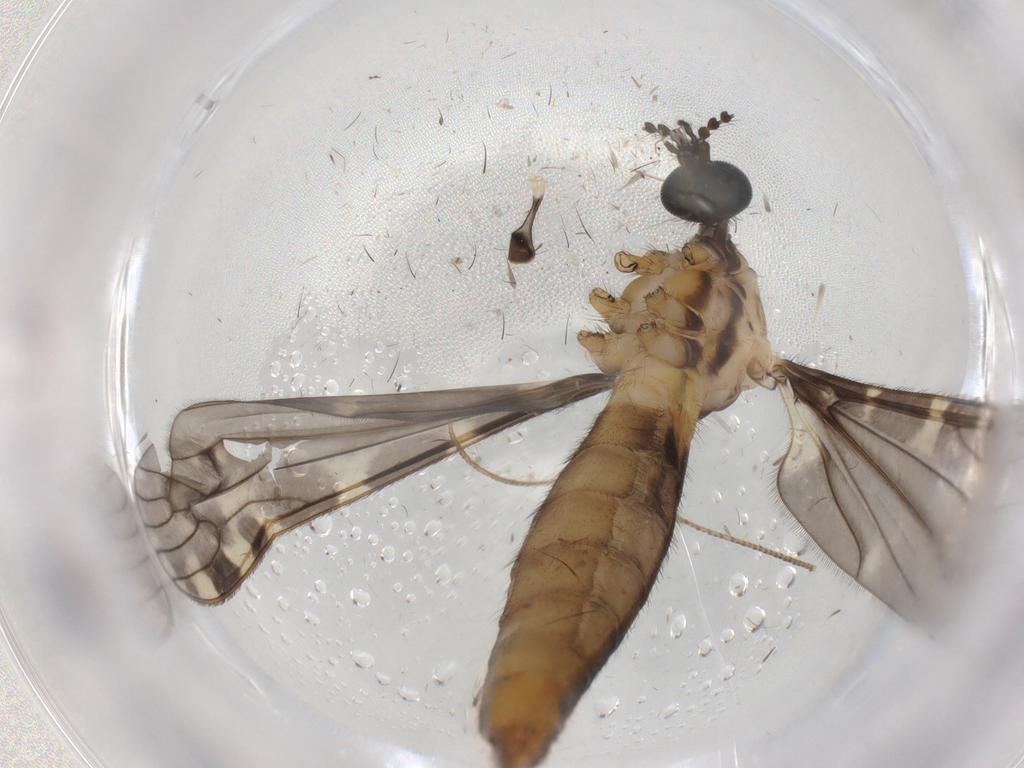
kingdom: Animalia
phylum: Arthropoda
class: Insecta
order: Diptera
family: Limoniidae
